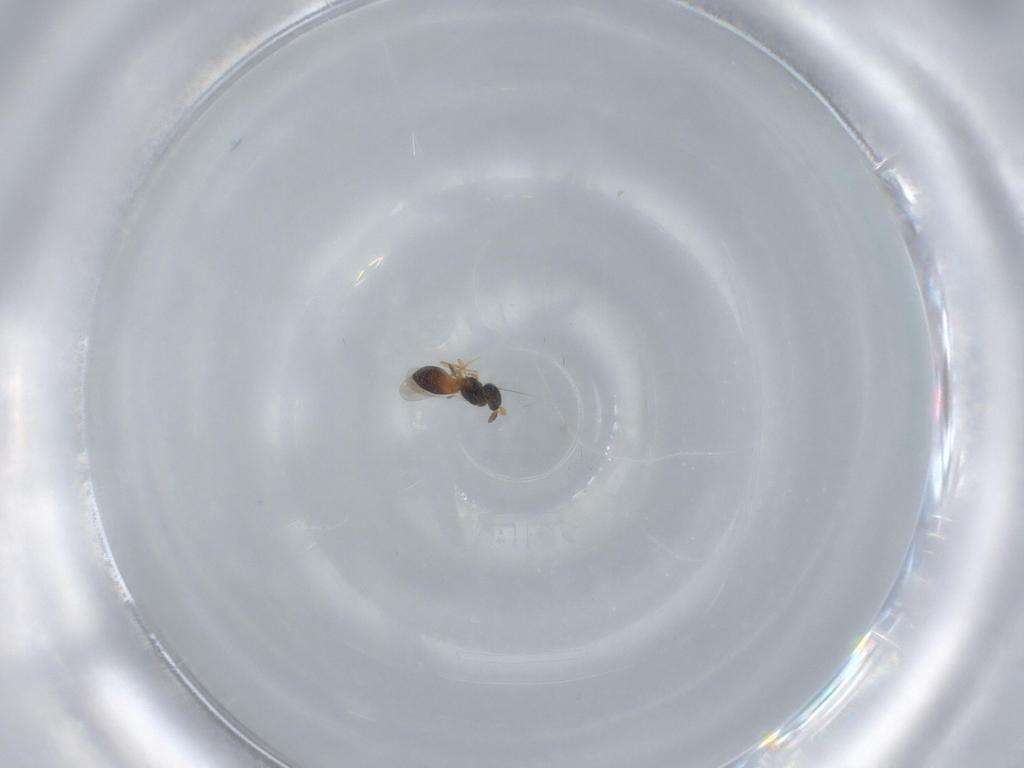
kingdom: Animalia
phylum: Arthropoda
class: Insecta
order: Hymenoptera
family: Platygastridae
